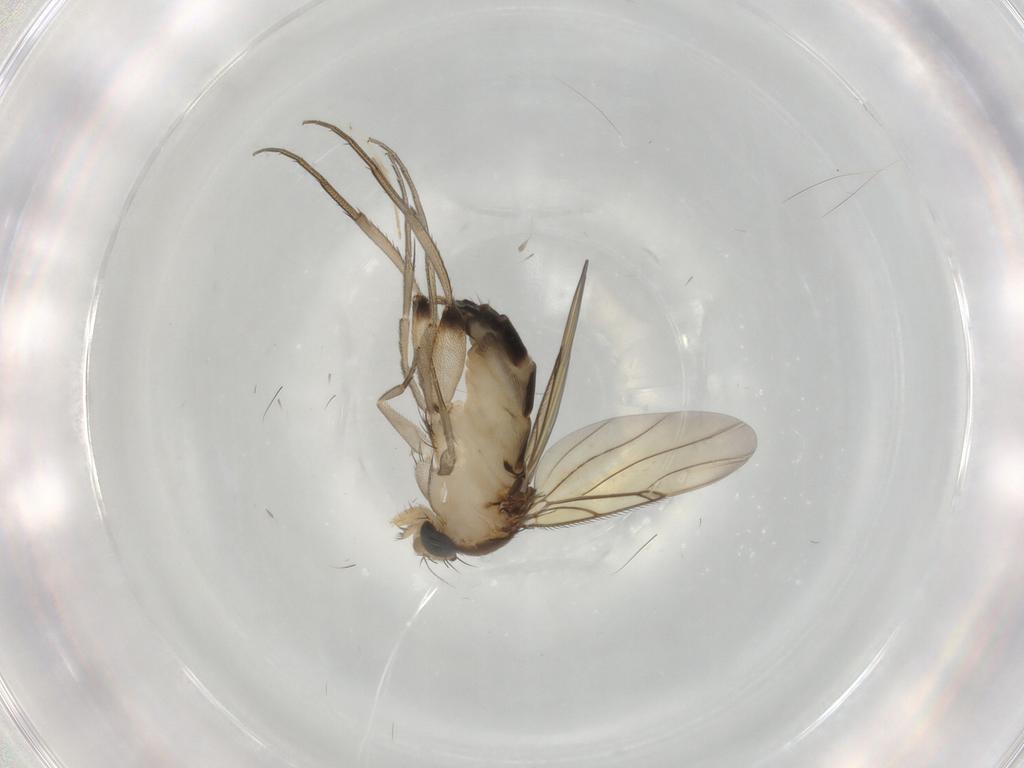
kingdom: Animalia
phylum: Arthropoda
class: Insecta
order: Diptera
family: Phoridae
